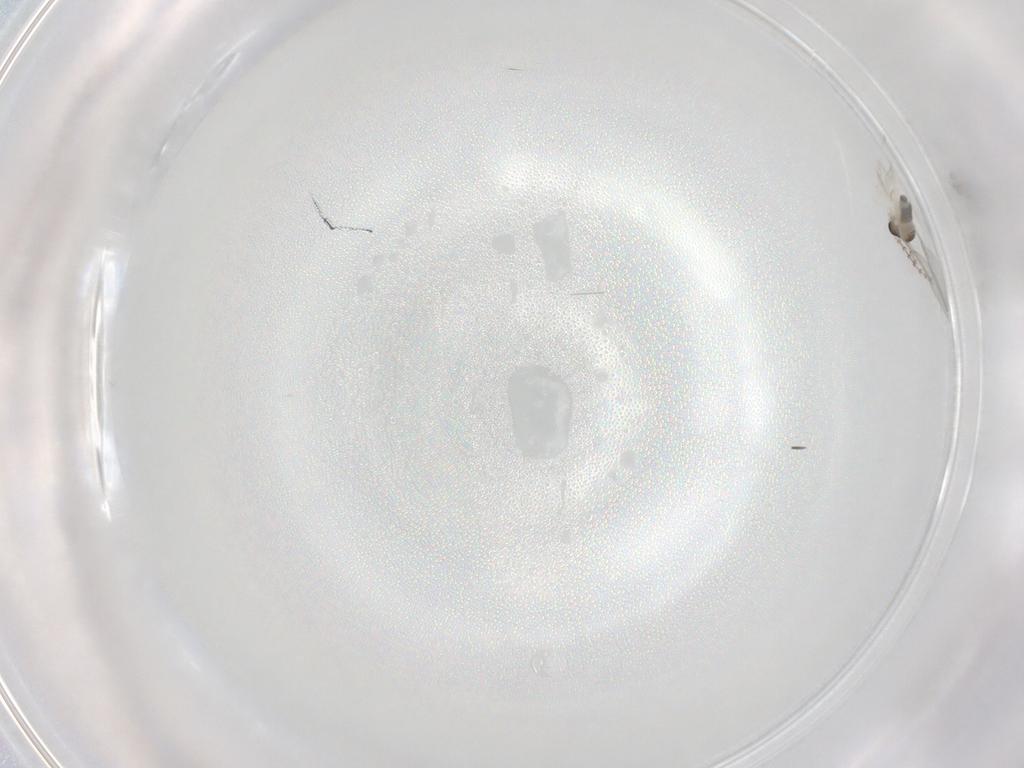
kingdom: Animalia
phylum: Arthropoda
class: Insecta
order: Diptera
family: Cecidomyiidae
